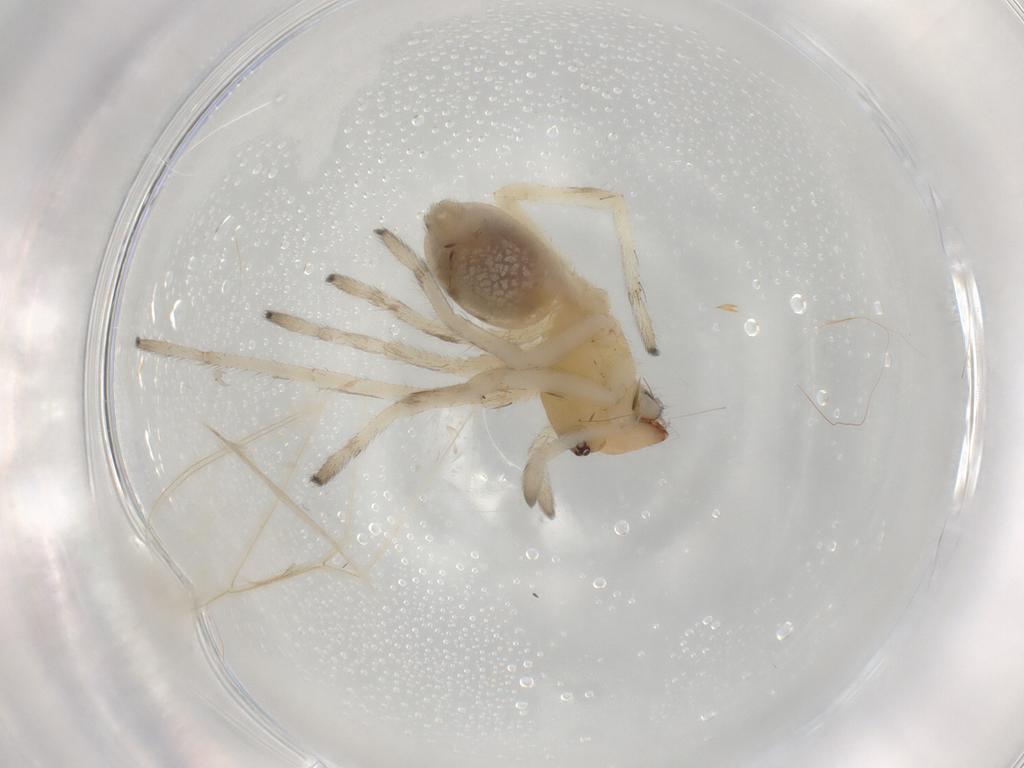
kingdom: Animalia
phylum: Arthropoda
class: Arachnida
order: Araneae
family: Cheiracanthiidae
